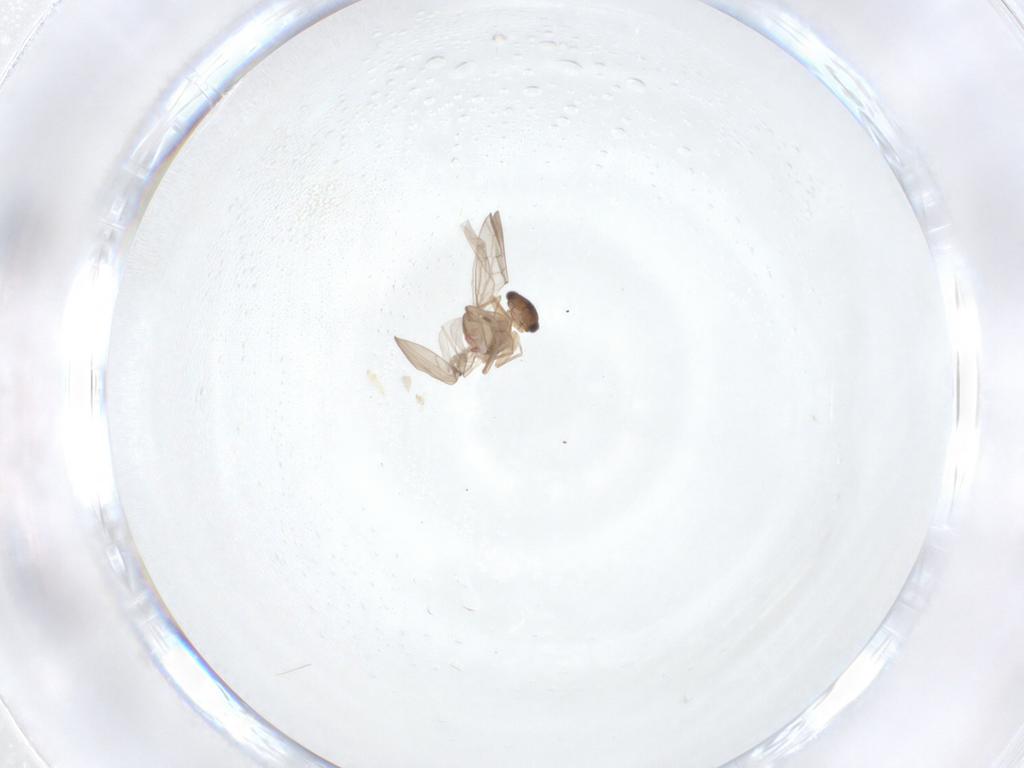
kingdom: Animalia
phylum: Arthropoda
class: Insecta
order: Psocodea
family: Lepidopsocidae
